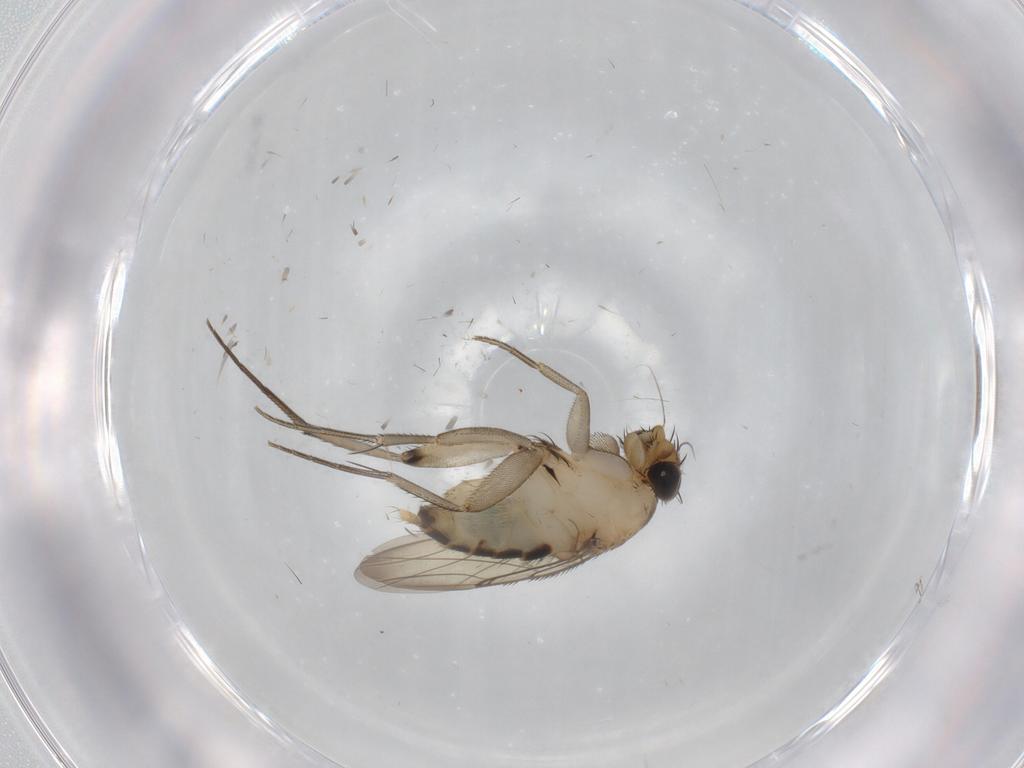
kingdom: Animalia
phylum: Arthropoda
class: Insecta
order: Diptera
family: Phoridae
